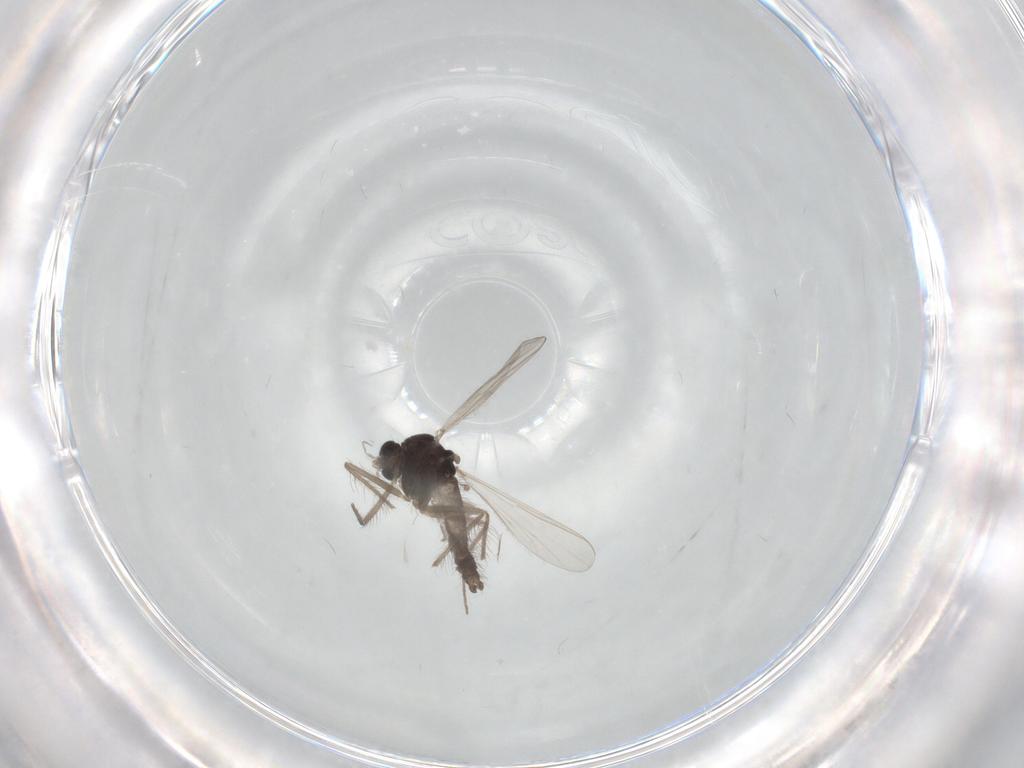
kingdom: Animalia
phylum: Arthropoda
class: Insecta
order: Diptera
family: Chironomidae
